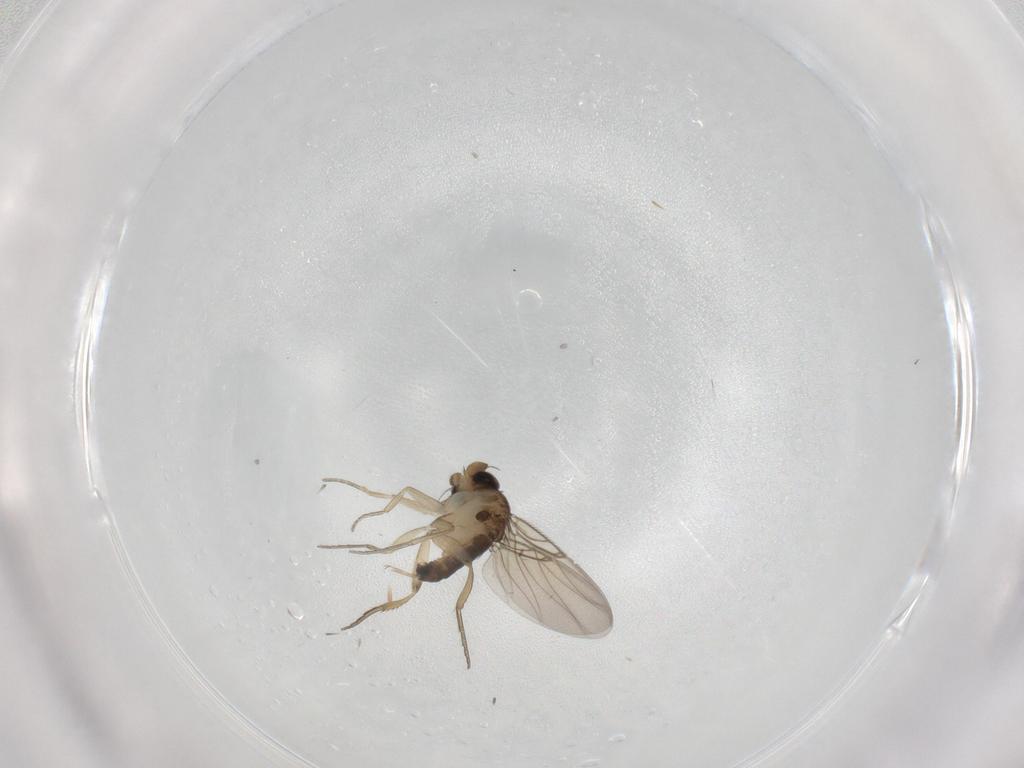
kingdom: Animalia
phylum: Arthropoda
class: Insecta
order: Diptera
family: Phoridae
